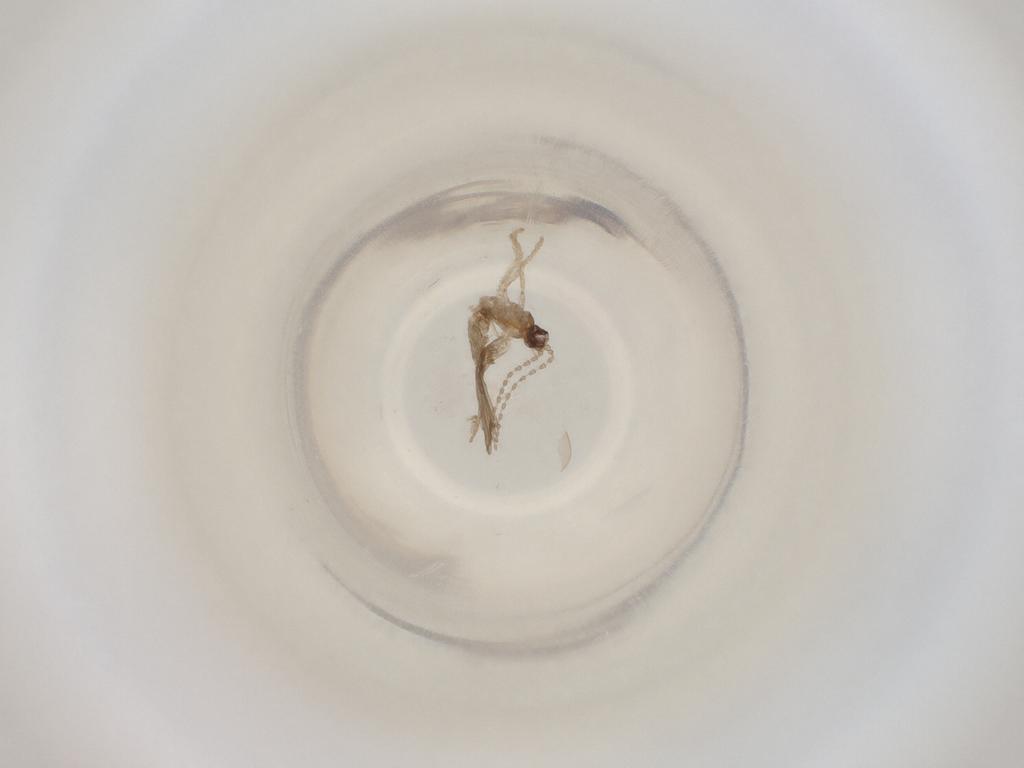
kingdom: Animalia
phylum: Arthropoda
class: Insecta
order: Diptera
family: Cecidomyiidae
